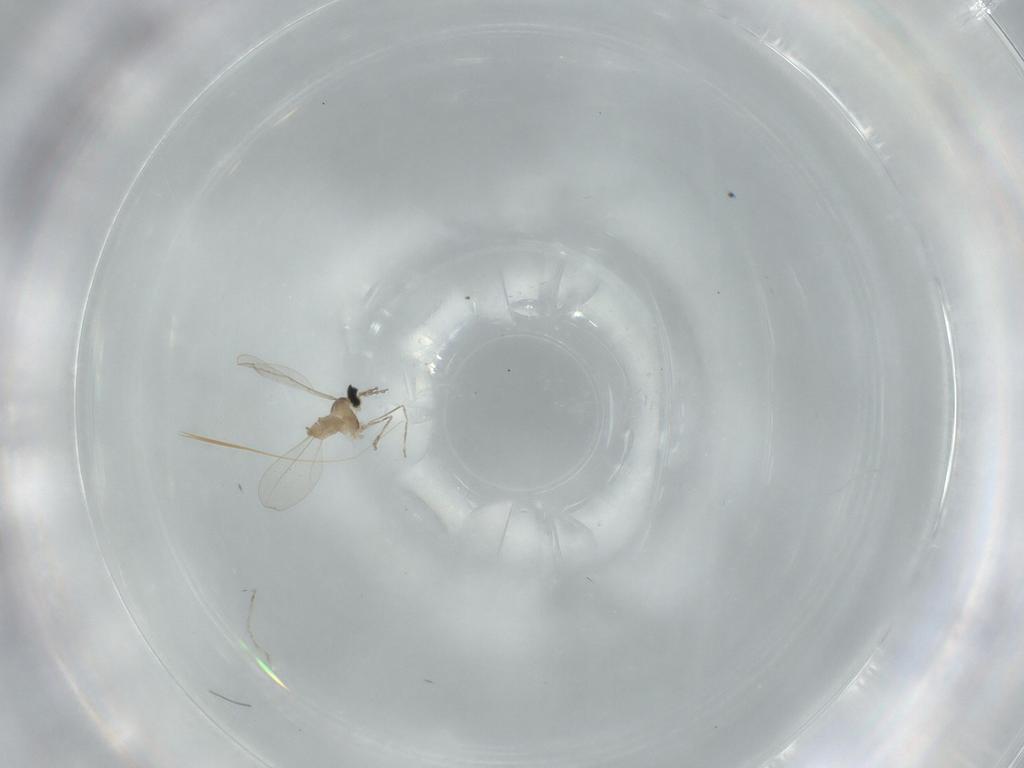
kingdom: Animalia
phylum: Arthropoda
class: Insecta
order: Diptera
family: Cecidomyiidae
